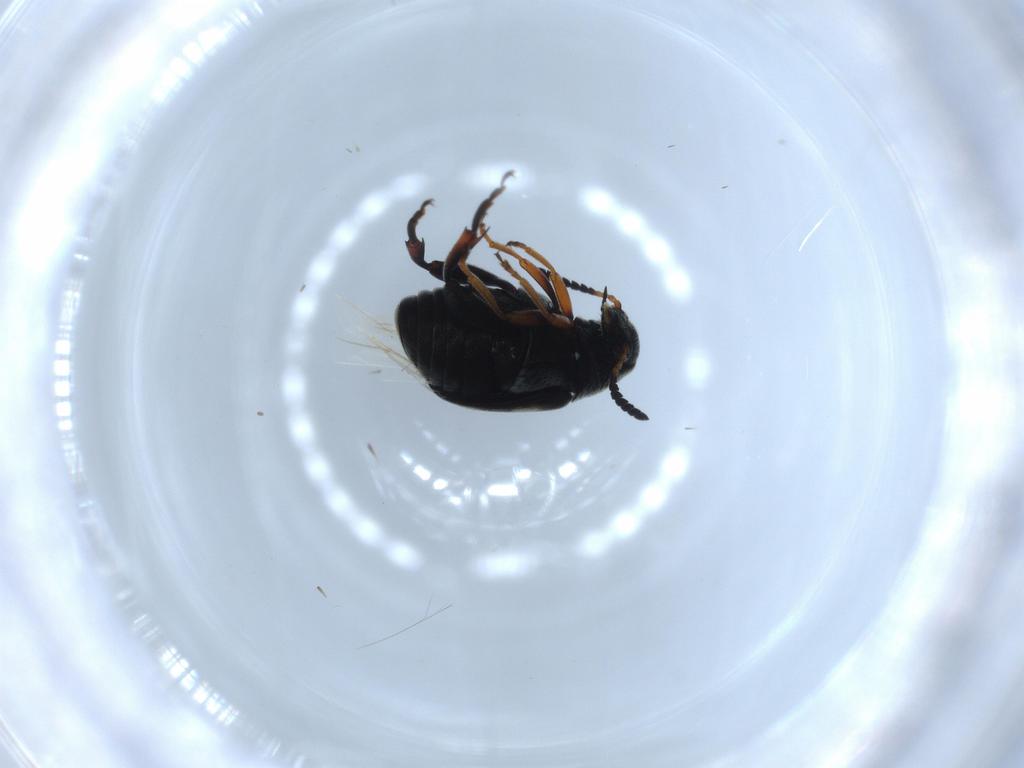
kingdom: Animalia
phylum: Arthropoda
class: Insecta
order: Coleoptera
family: Chrysomelidae
